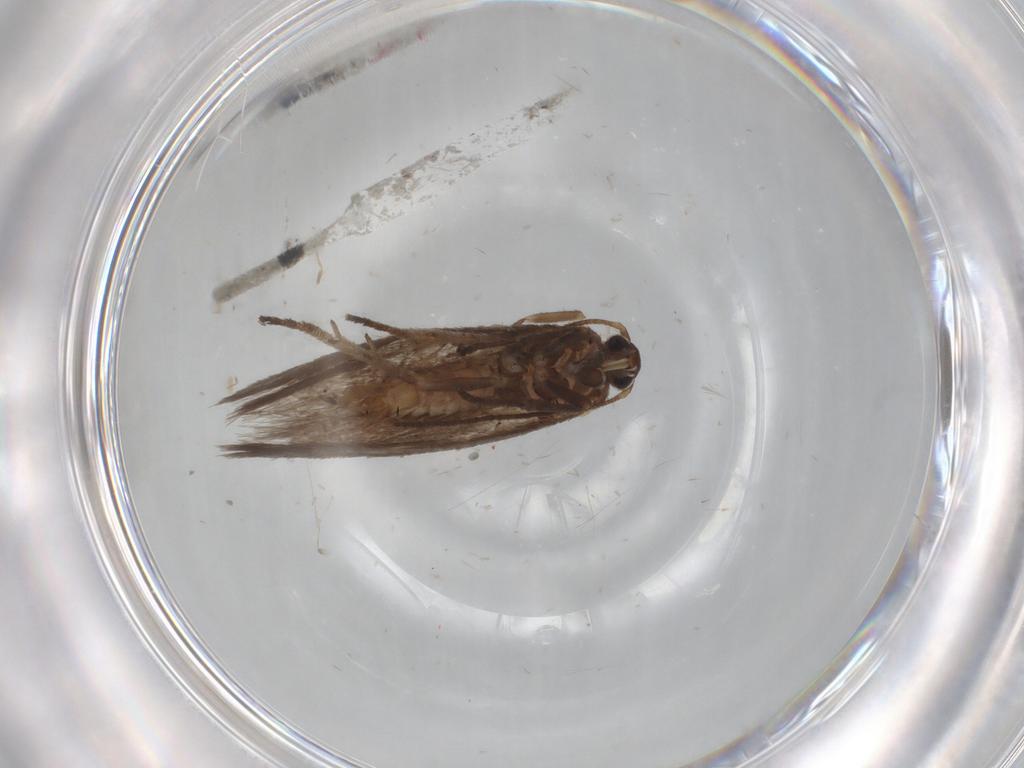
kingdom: Animalia
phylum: Arthropoda
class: Insecta
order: Lepidoptera
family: Limacodidae
